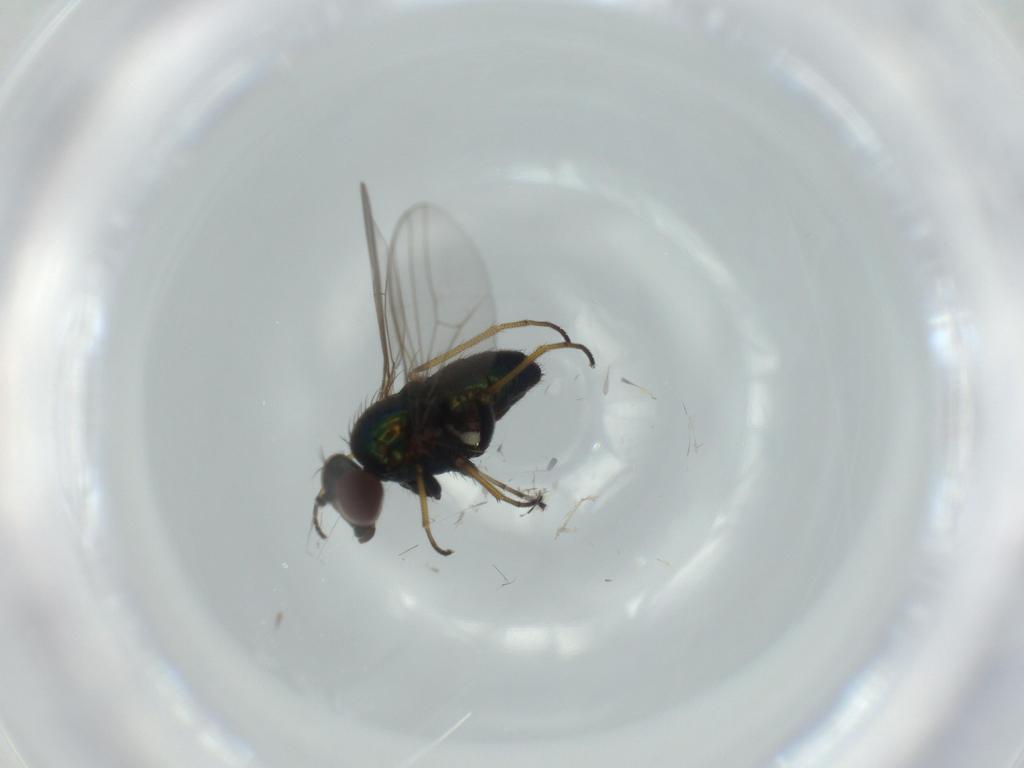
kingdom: Animalia
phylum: Arthropoda
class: Insecta
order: Diptera
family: Dolichopodidae
